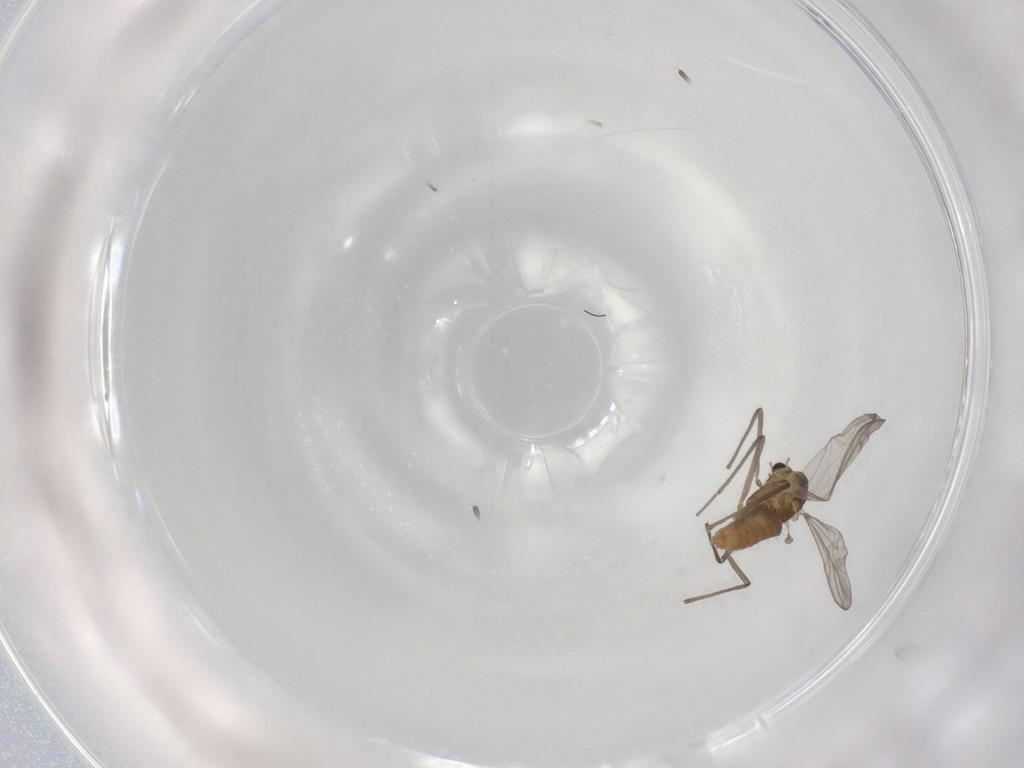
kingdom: Animalia
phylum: Arthropoda
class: Insecta
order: Diptera
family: Chironomidae
